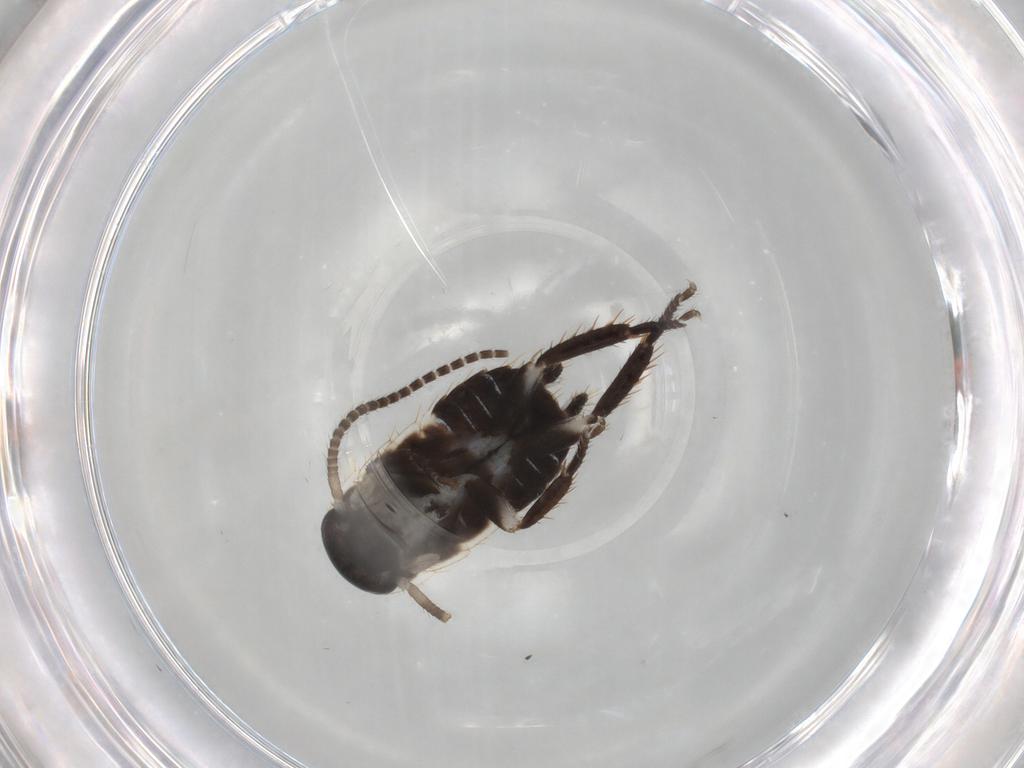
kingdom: Animalia
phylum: Arthropoda
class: Insecta
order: Blattodea
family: Ectobiidae
